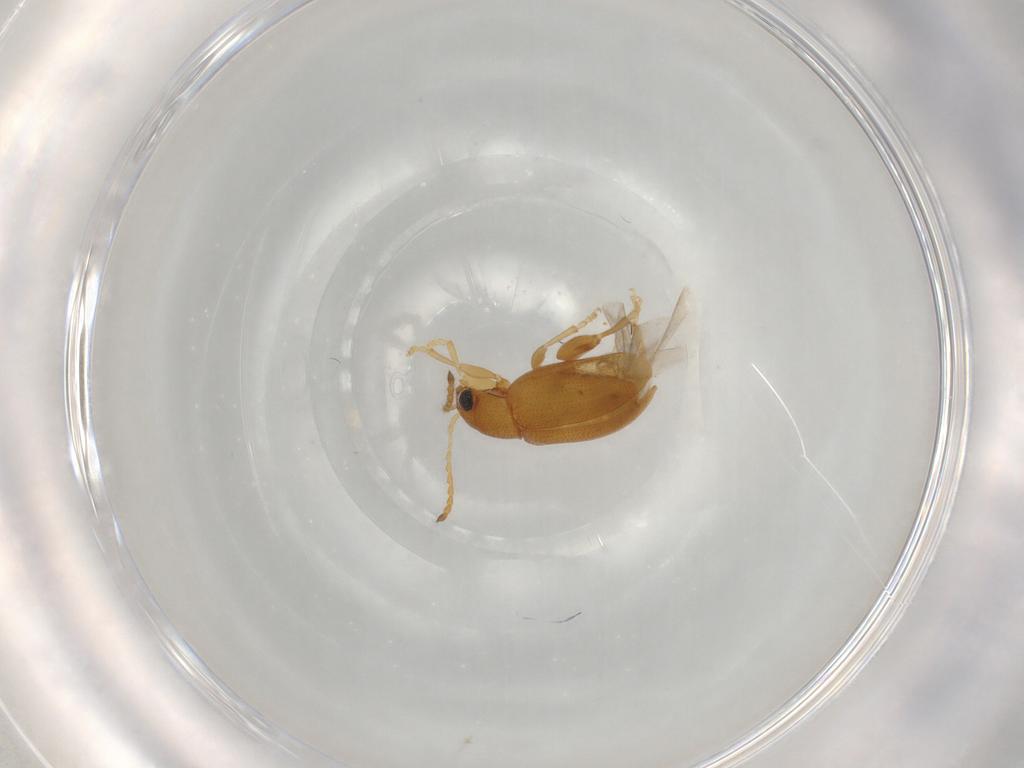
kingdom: Animalia
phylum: Arthropoda
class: Insecta
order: Coleoptera
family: Chrysomelidae
